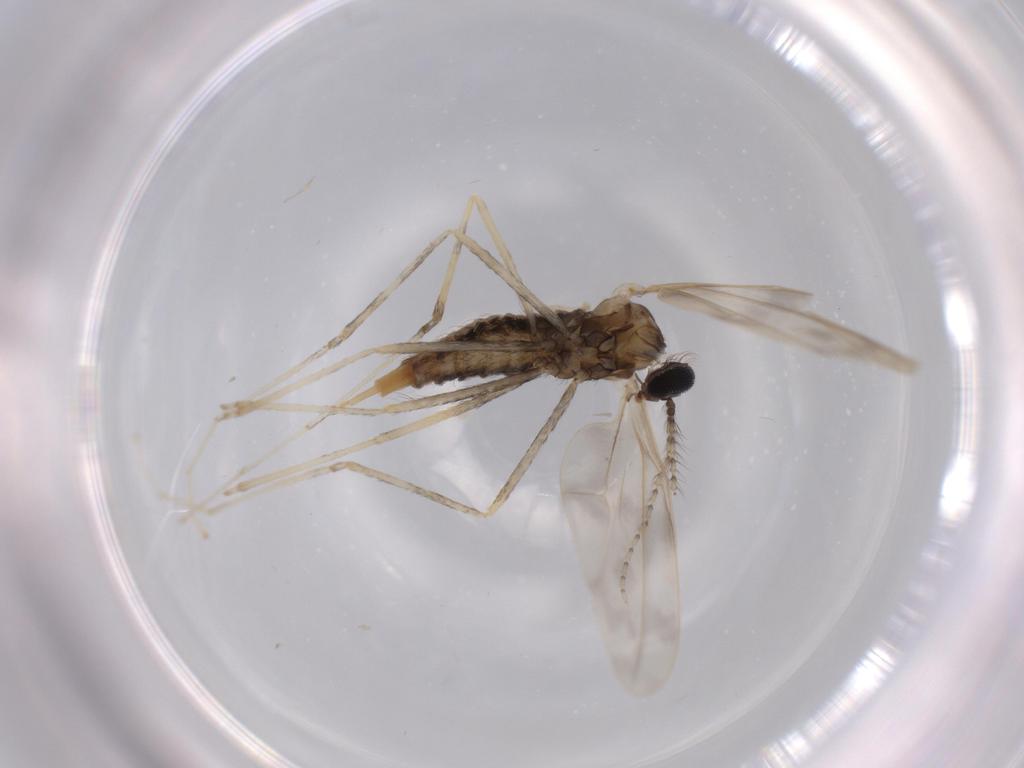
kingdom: Animalia
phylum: Arthropoda
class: Insecta
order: Diptera
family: Cecidomyiidae
